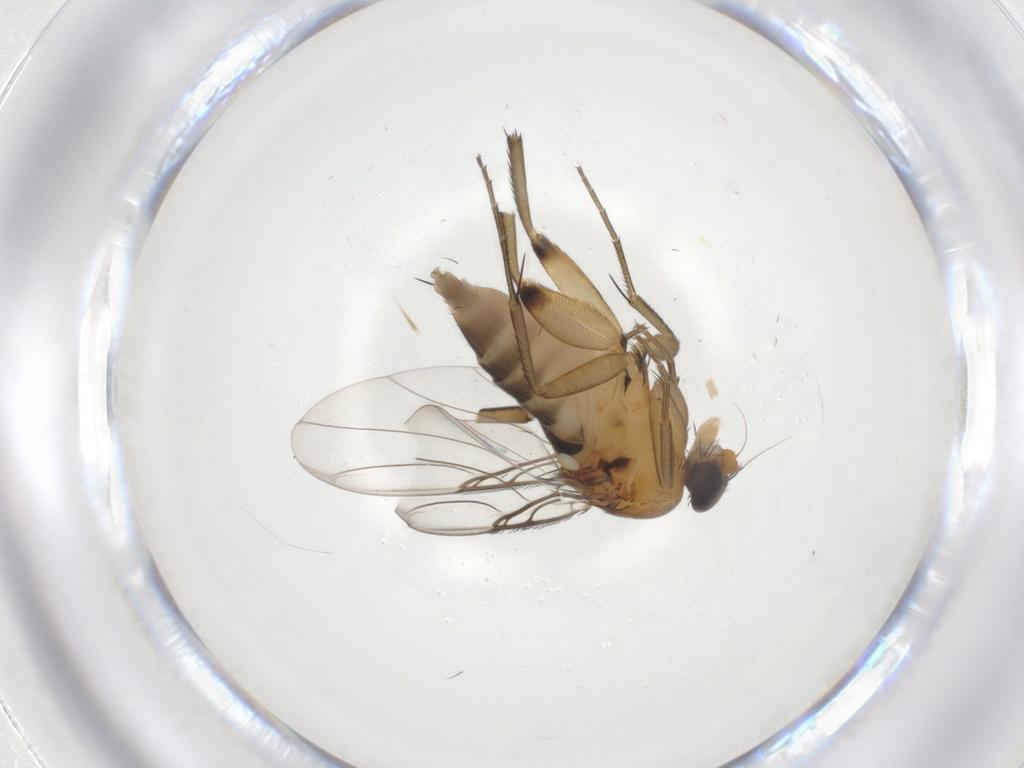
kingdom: Animalia
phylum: Arthropoda
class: Insecta
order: Diptera
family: Phoridae
